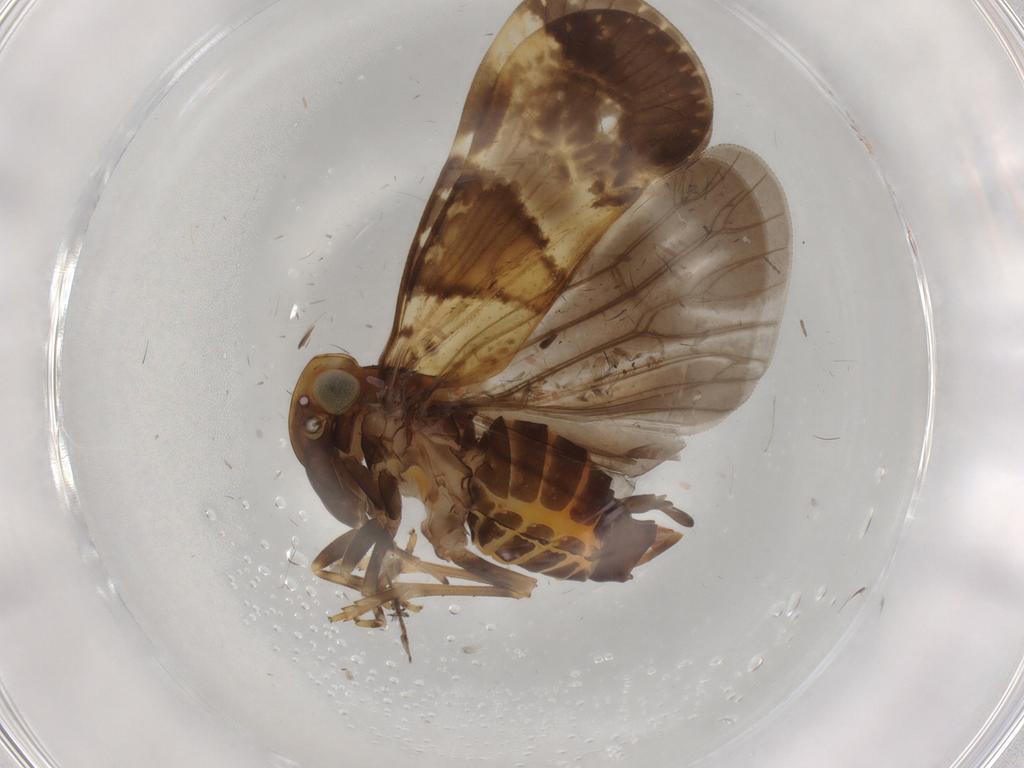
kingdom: Animalia
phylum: Arthropoda
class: Insecta
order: Hemiptera
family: Cixiidae
